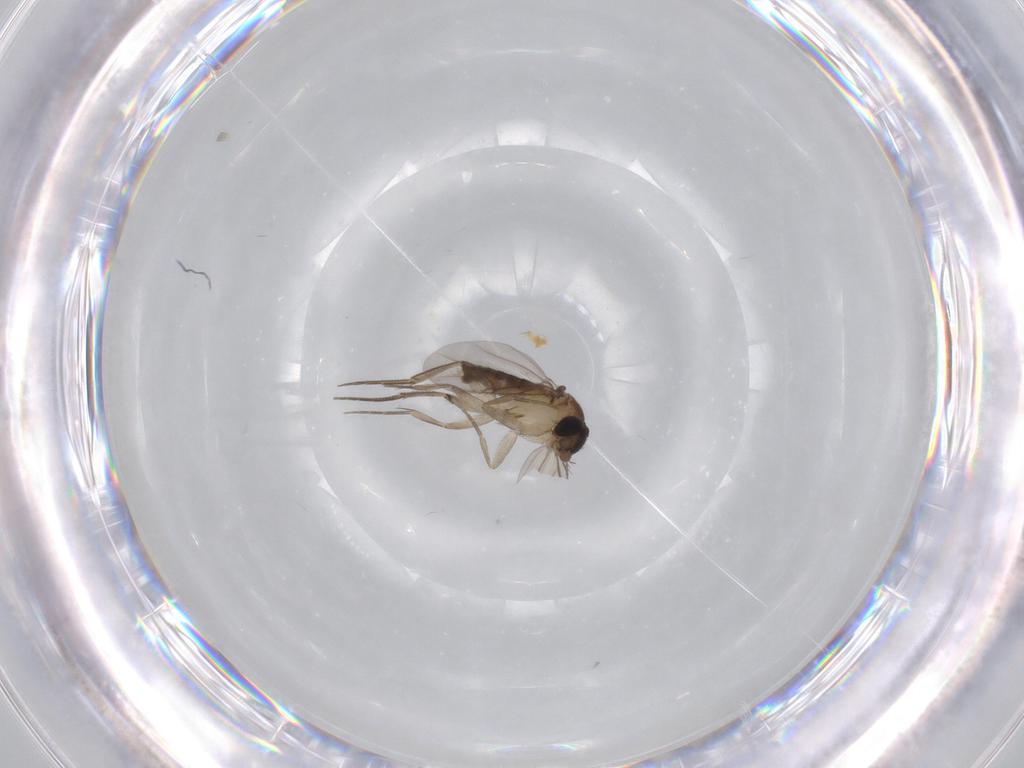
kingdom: Animalia
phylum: Arthropoda
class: Insecta
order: Diptera
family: Phoridae
